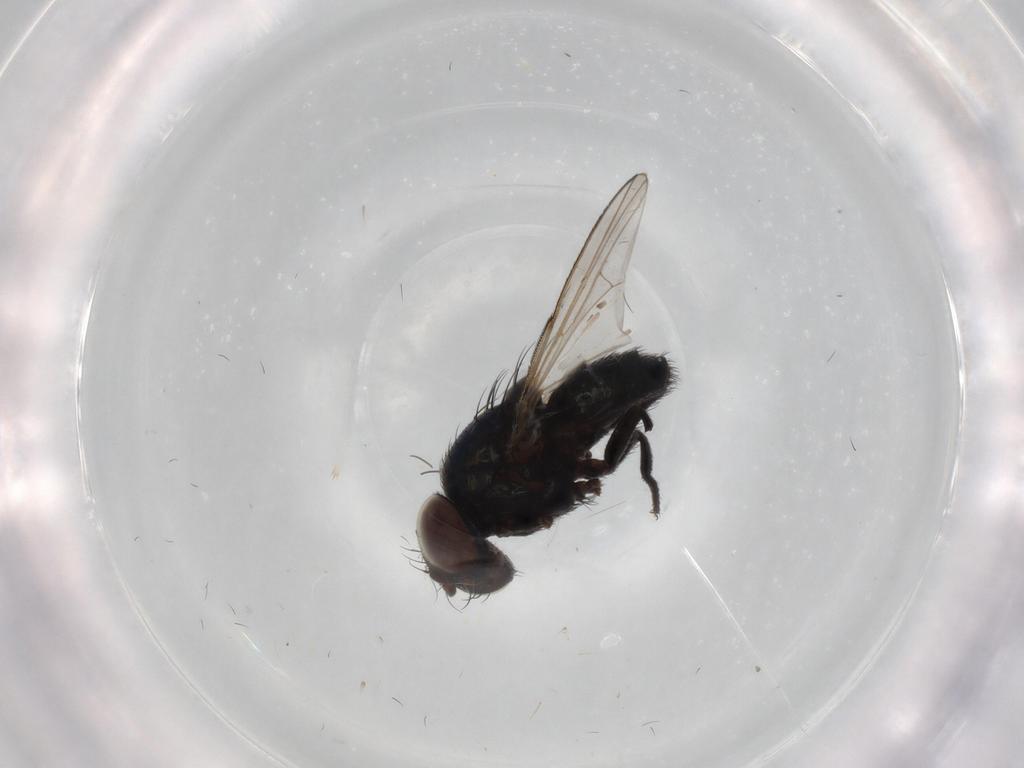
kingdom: Animalia
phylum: Arthropoda
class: Insecta
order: Diptera
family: Milichiidae
